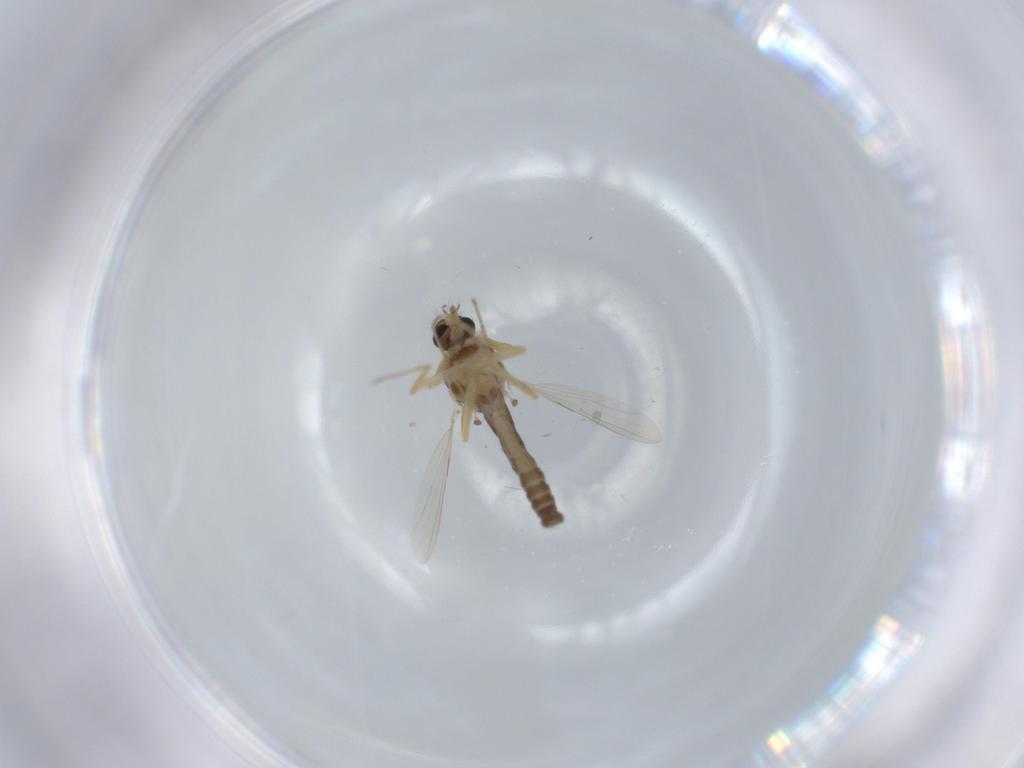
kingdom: Animalia
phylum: Arthropoda
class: Insecta
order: Diptera
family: Ceratopogonidae
